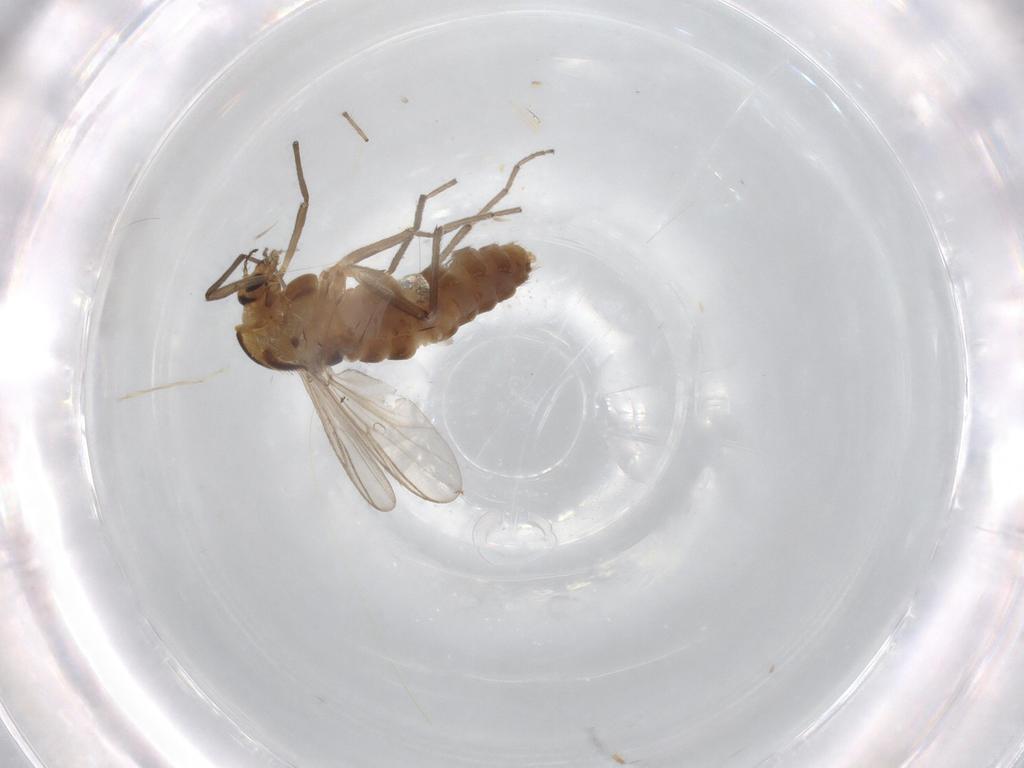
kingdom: Animalia
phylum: Arthropoda
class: Insecta
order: Diptera
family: Chironomidae
